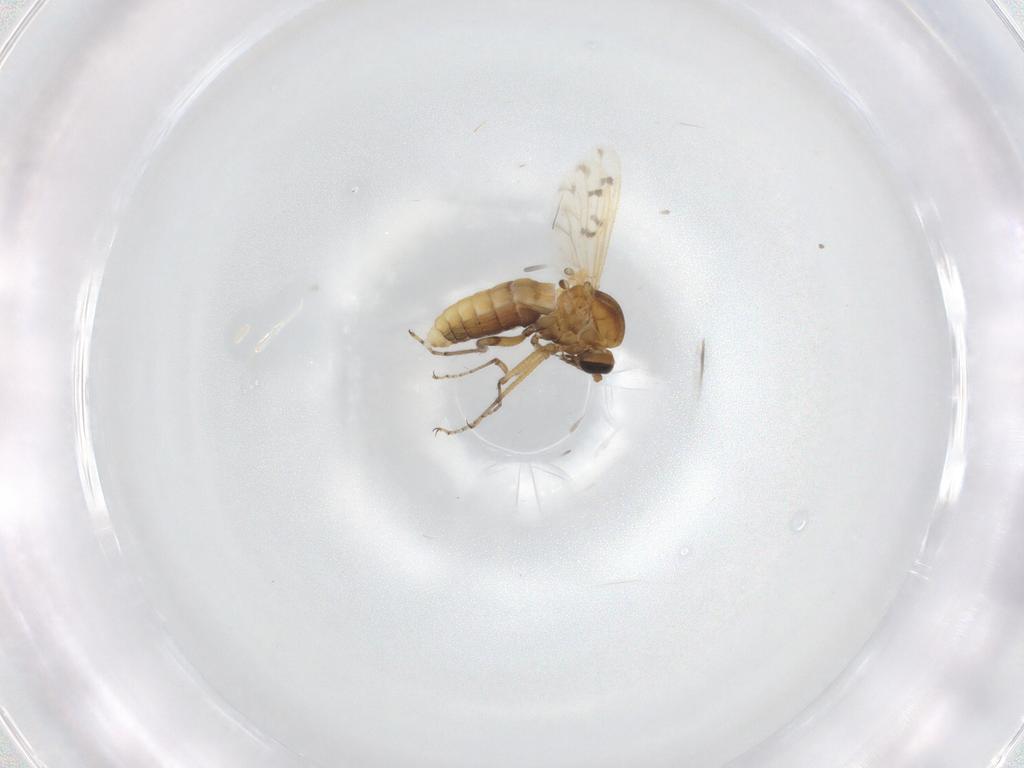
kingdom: Animalia
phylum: Arthropoda
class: Insecta
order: Diptera
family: Ceratopogonidae
